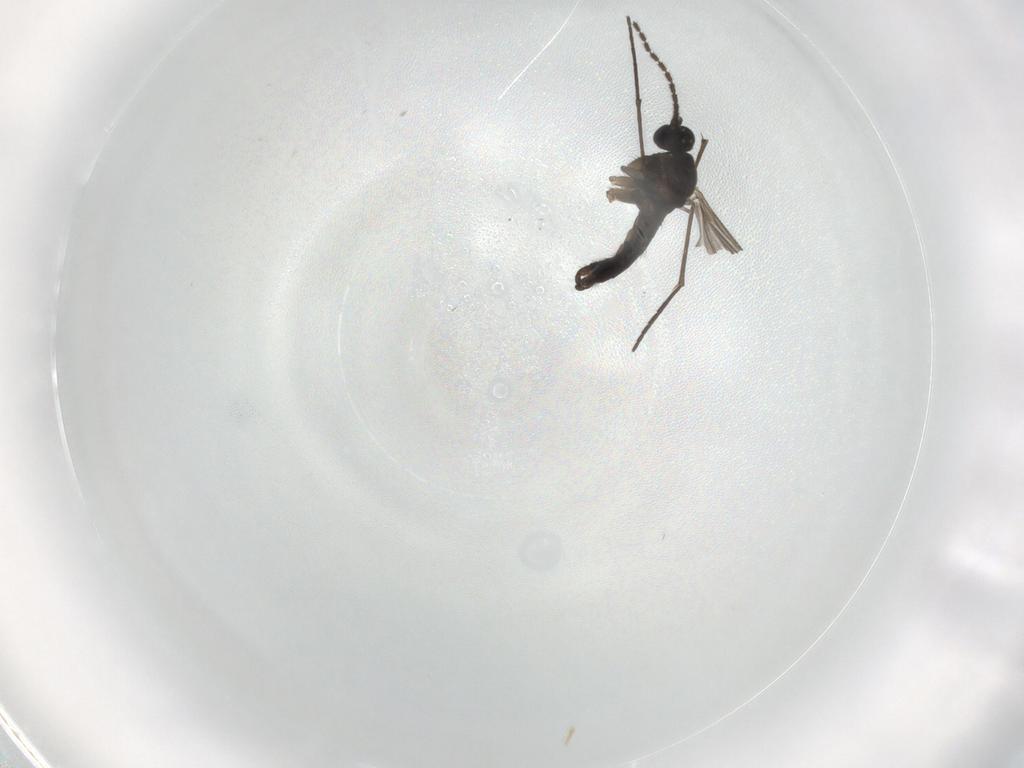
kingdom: Animalia
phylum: Arthropoda
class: Insecta
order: Diptera
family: Sciaridae
